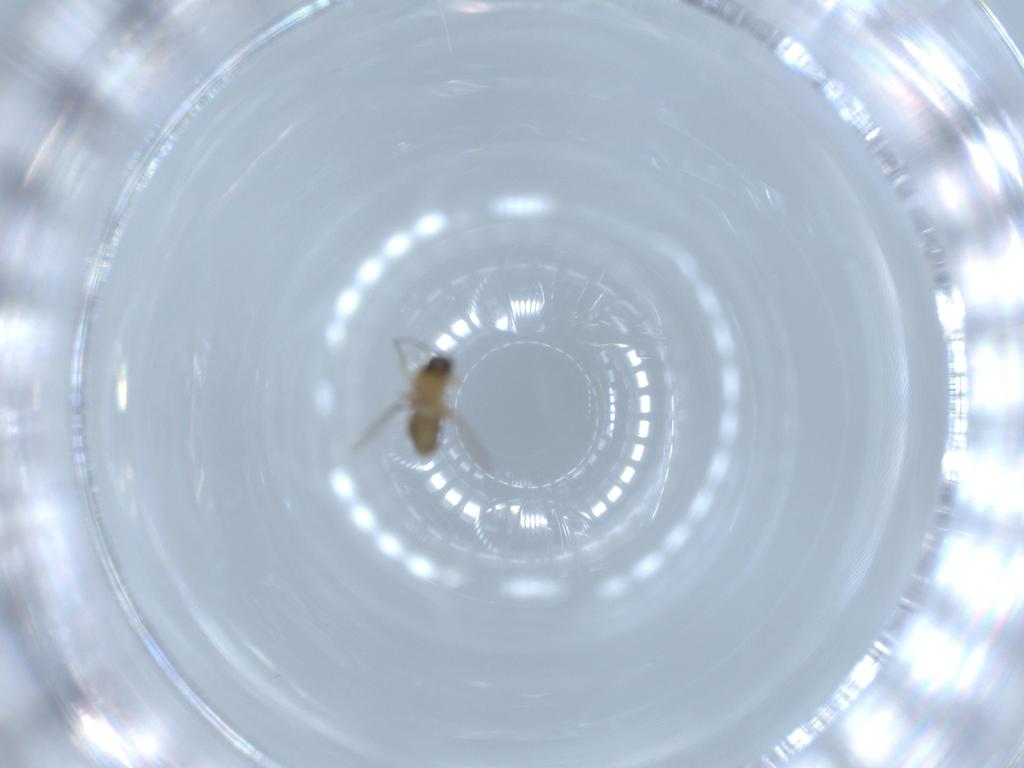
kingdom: Animalia
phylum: Arthropoda
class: Insecta
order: Diptera
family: Ceratopogonidae
